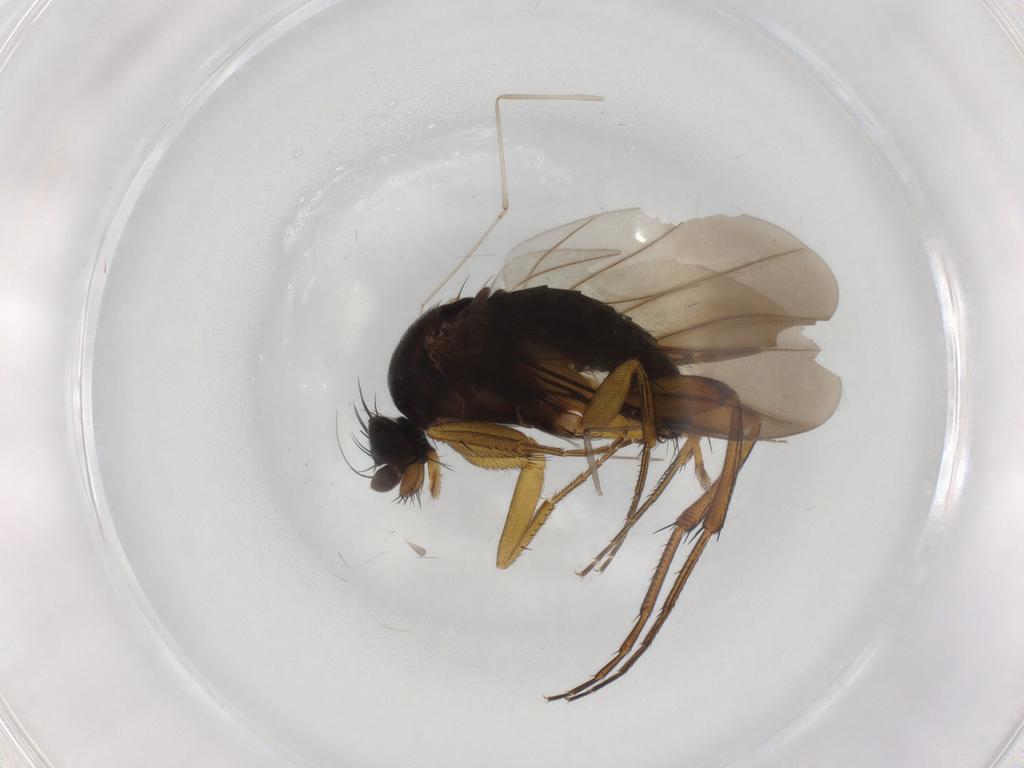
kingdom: Animalia
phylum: Arthropoda
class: Insecta
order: Diptera
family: Phoridae
